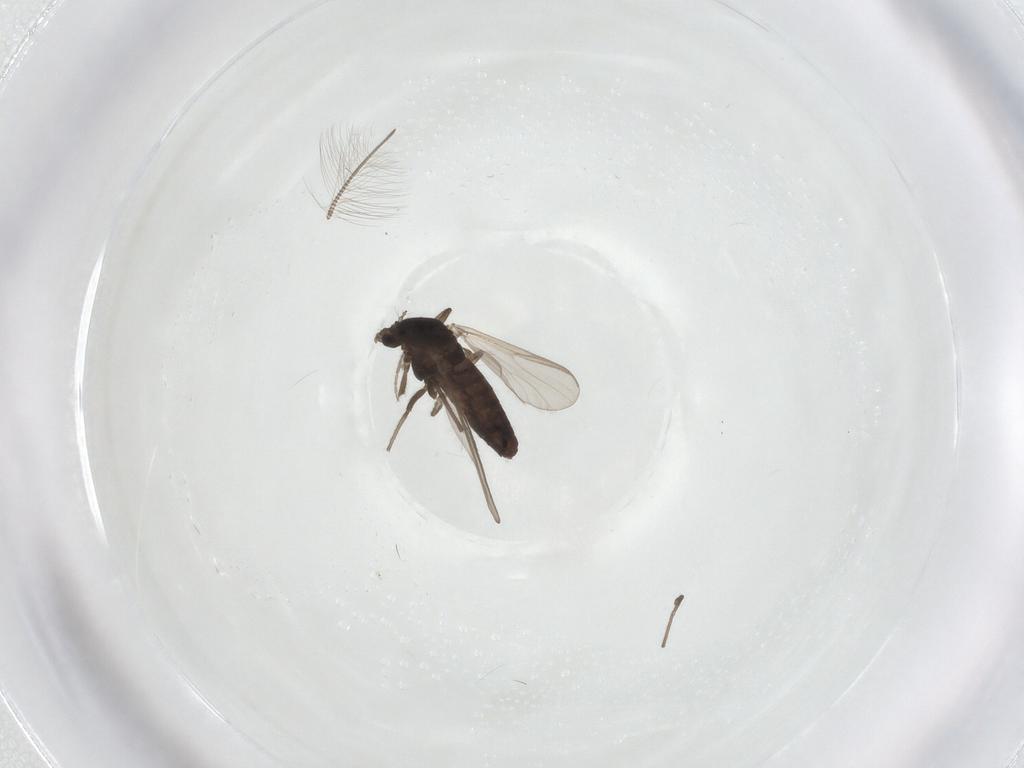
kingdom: Animalia
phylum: Arthropoda
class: Insecta
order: Diptera
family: Chironomidae
